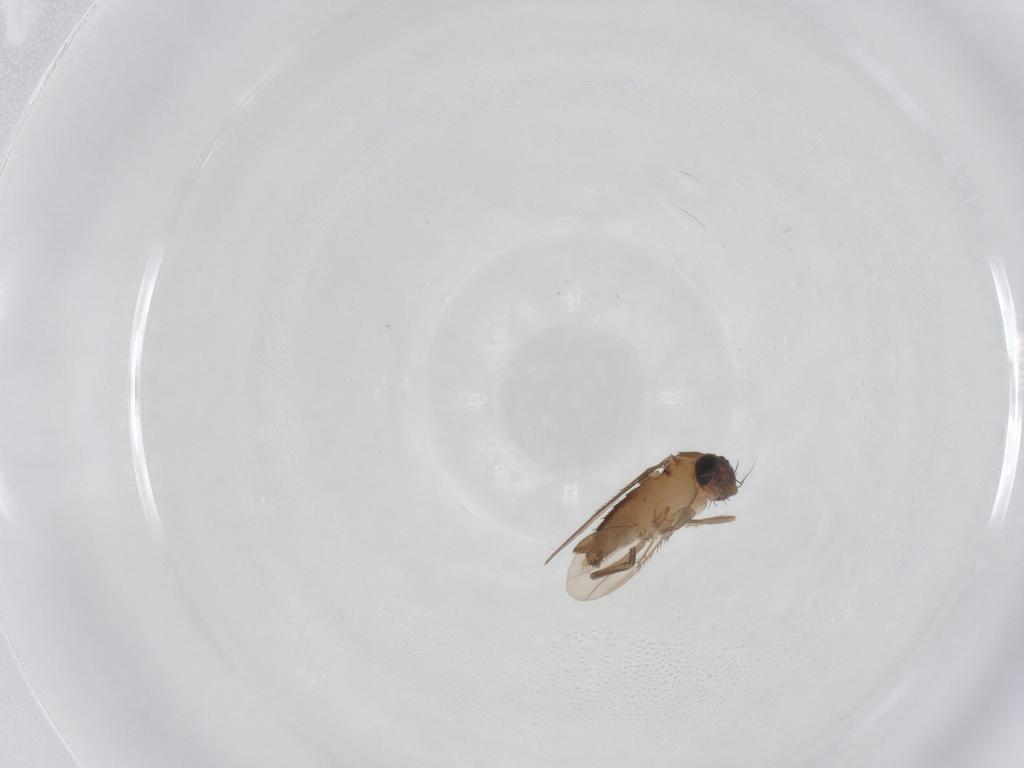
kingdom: Animalia
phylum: Arthropoda
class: Insecta
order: Diptera
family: Phoridae
